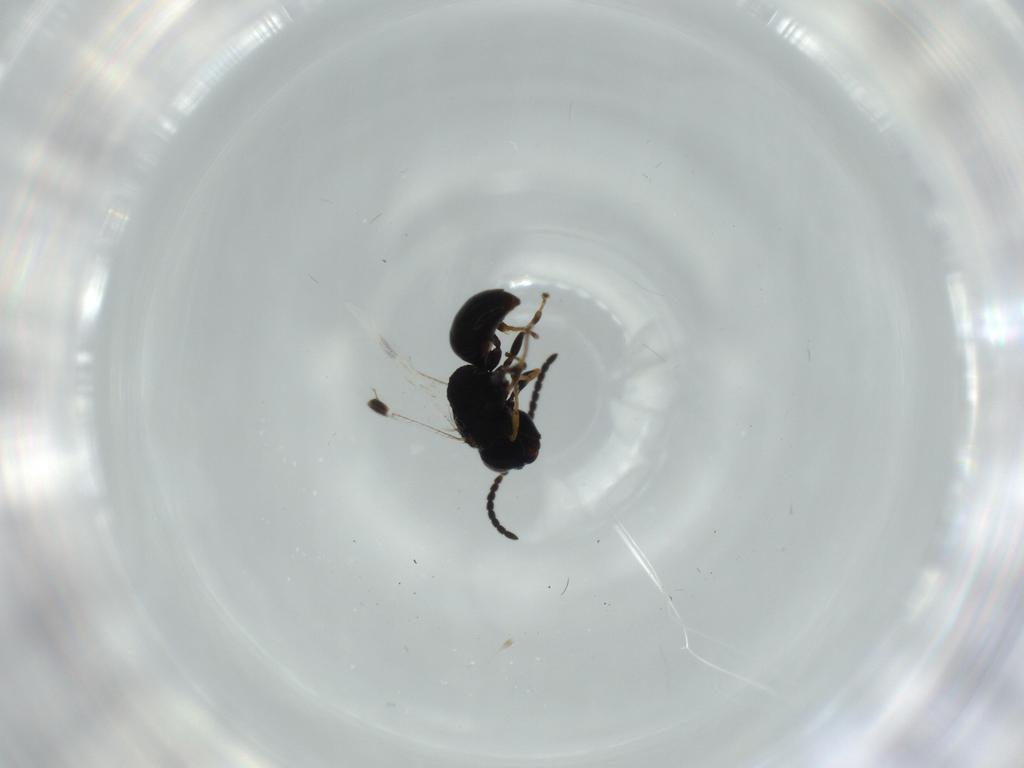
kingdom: Animalia
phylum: Arthropoda
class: Insecta
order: Hymenoptera
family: Dryinidae
